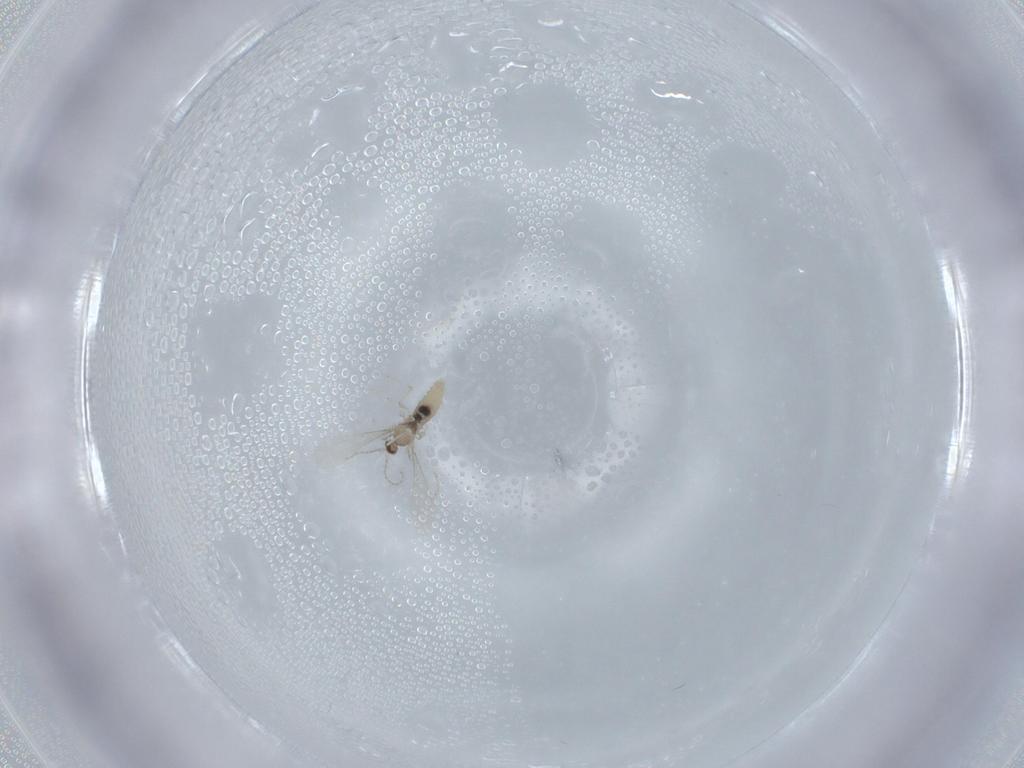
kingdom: Animalia
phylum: Arthropoda
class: Insecta
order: Diptera
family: Cecidomyiidae
